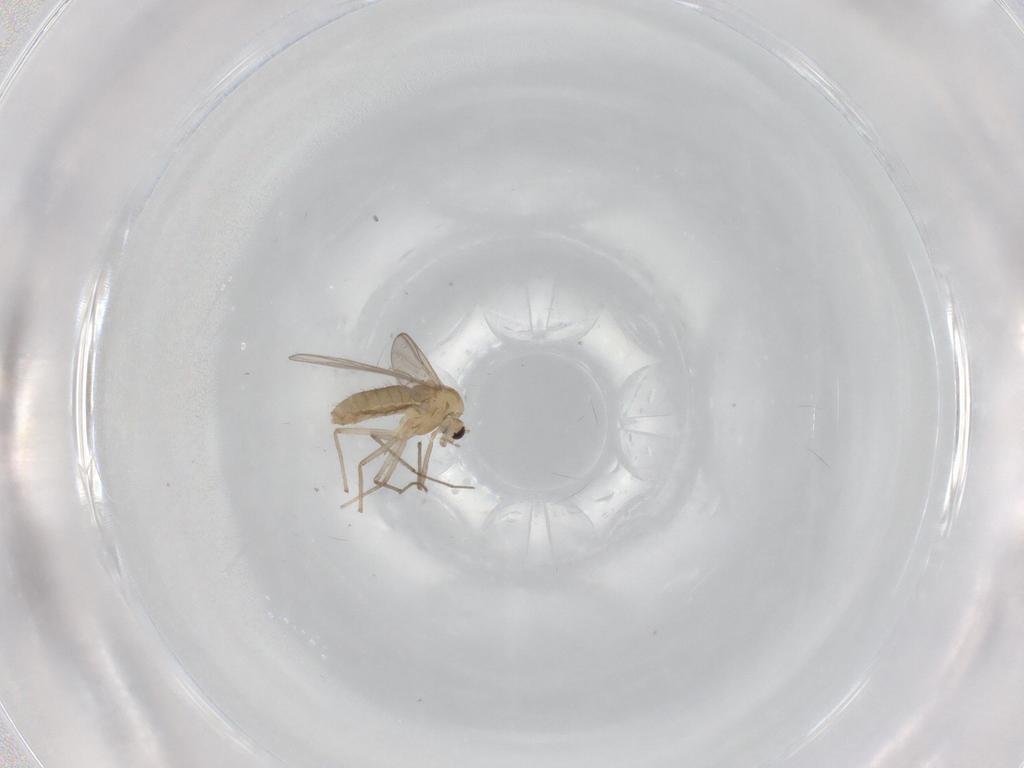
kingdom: Animalia
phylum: Arthropoda
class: Insecta
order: Diptera
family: Chironomidae
